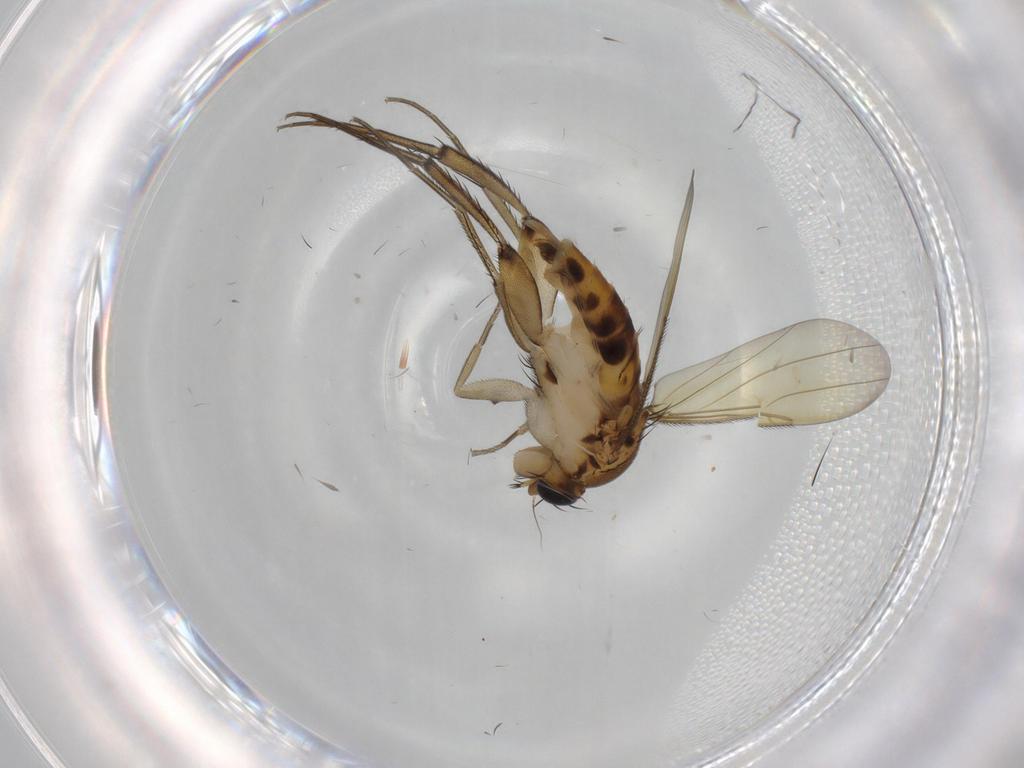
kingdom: Animalia
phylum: Arthropoda
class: Insecta
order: Diptera
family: Phoridae
